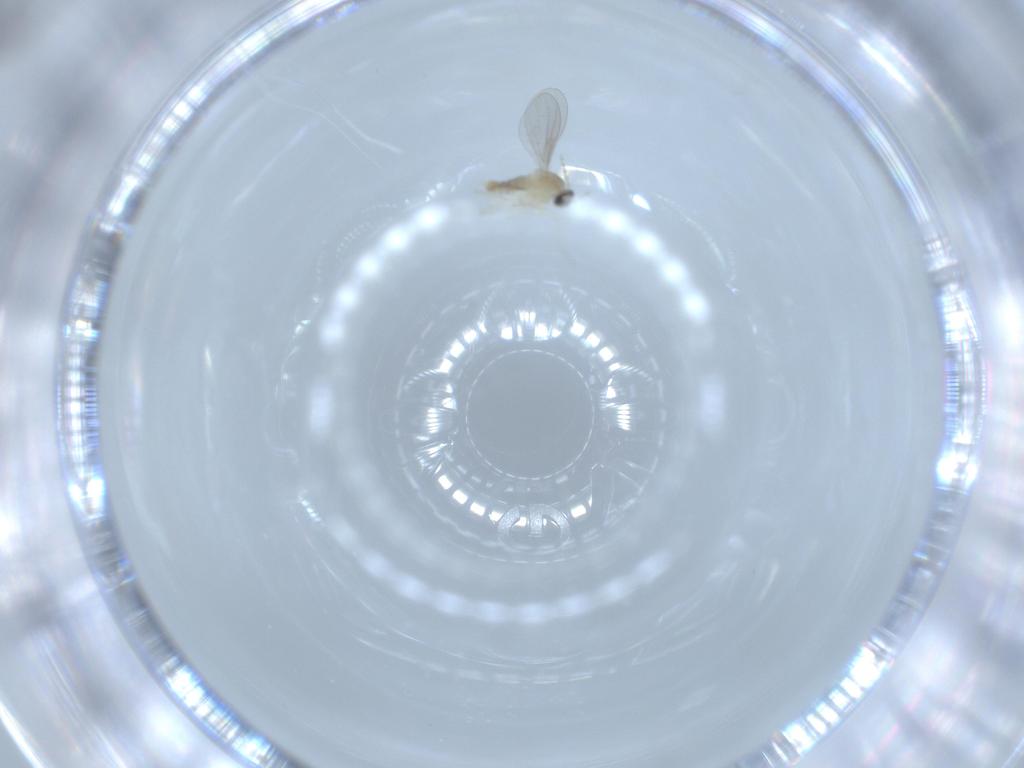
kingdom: Animalia
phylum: Arthropoda
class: Insecta
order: Diptera
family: Cecidomyiidae
